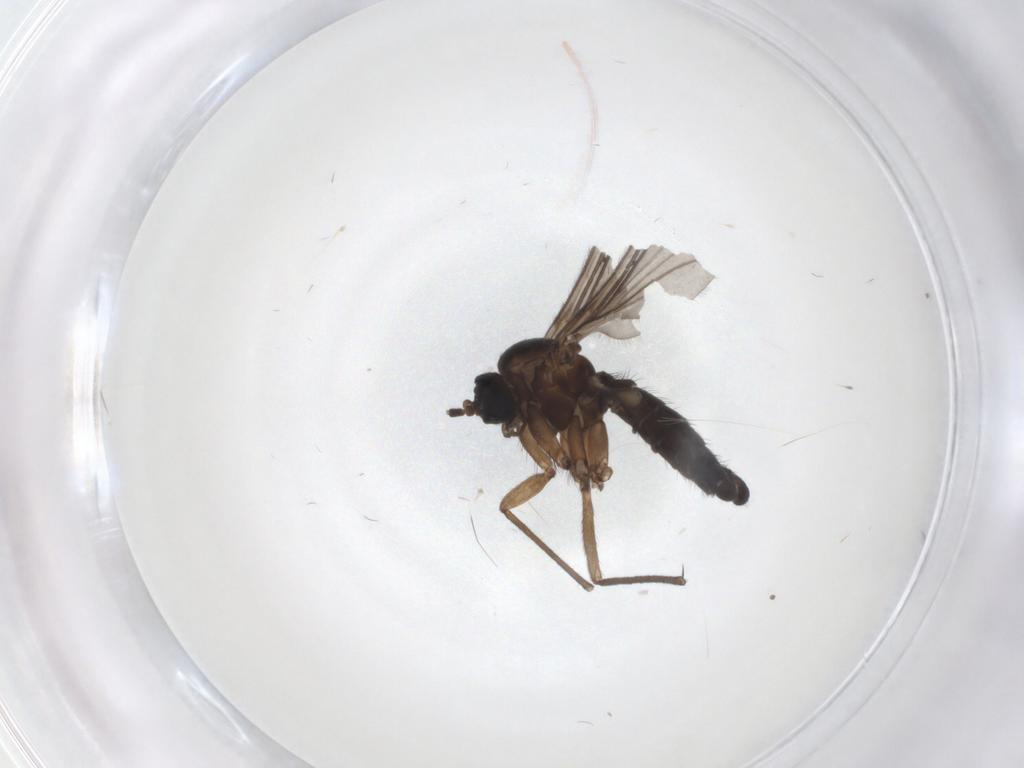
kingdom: Animalia
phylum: Arthropoda
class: Insecta
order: Diptera
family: Sciaridae
